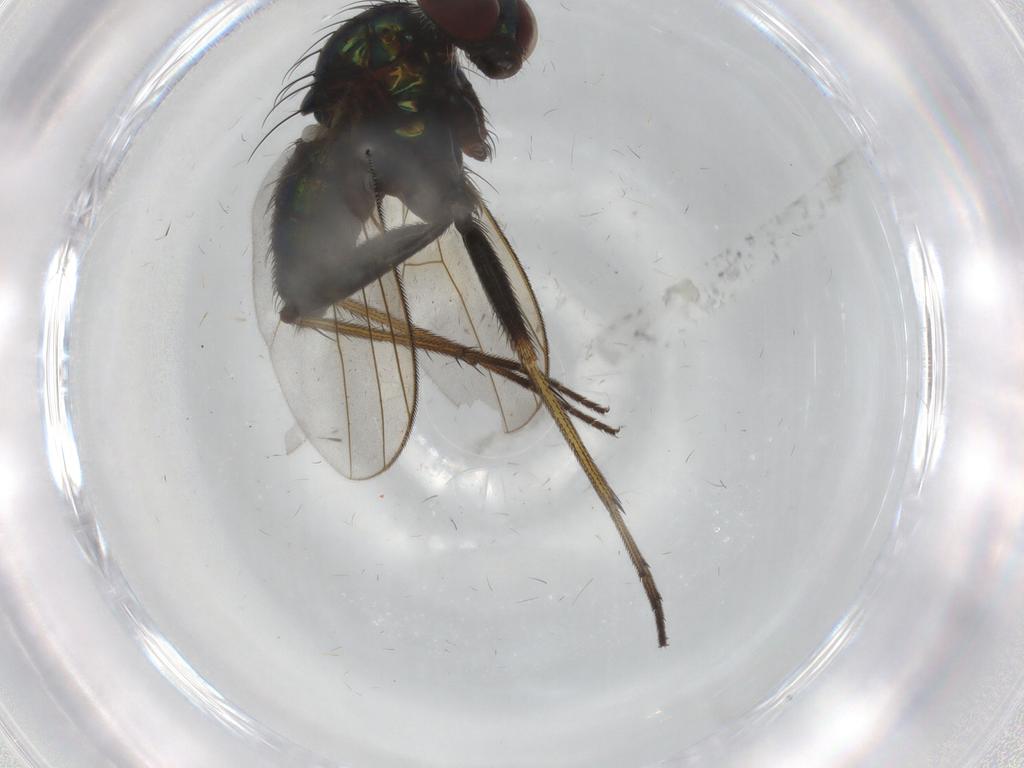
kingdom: Animalia
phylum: Arthropoda
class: Insecta
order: Diptera
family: Dolichopodidae
